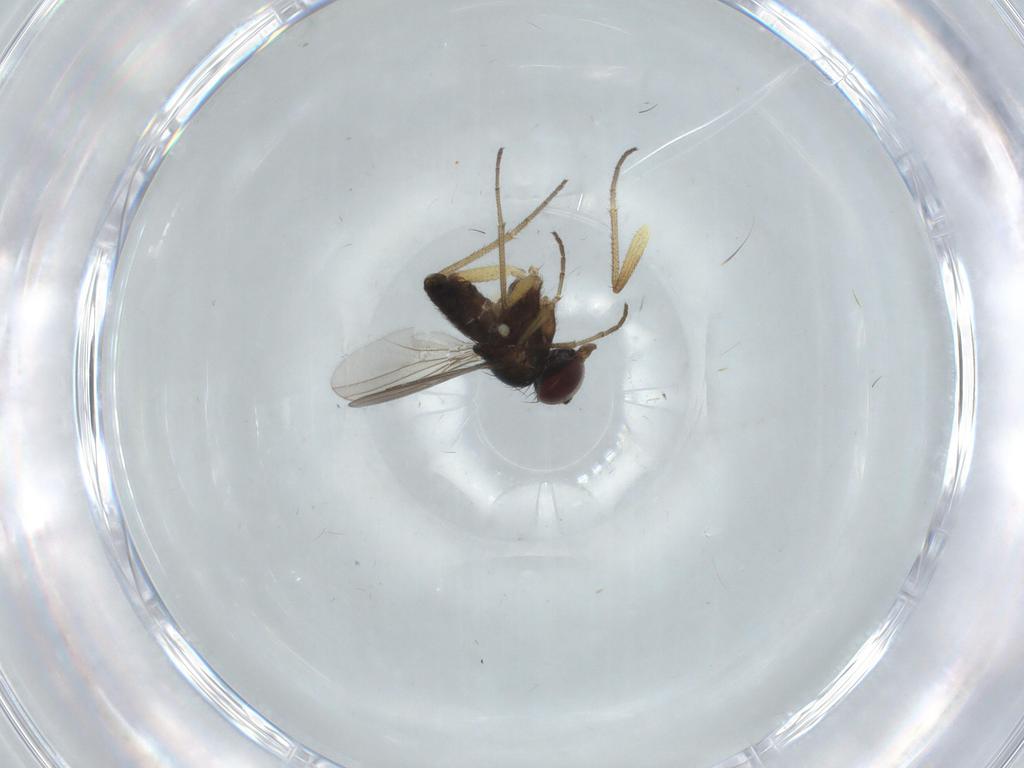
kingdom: Animalia
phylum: Arthropoda
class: Insecta
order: Diptera
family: Dolichopodidae
